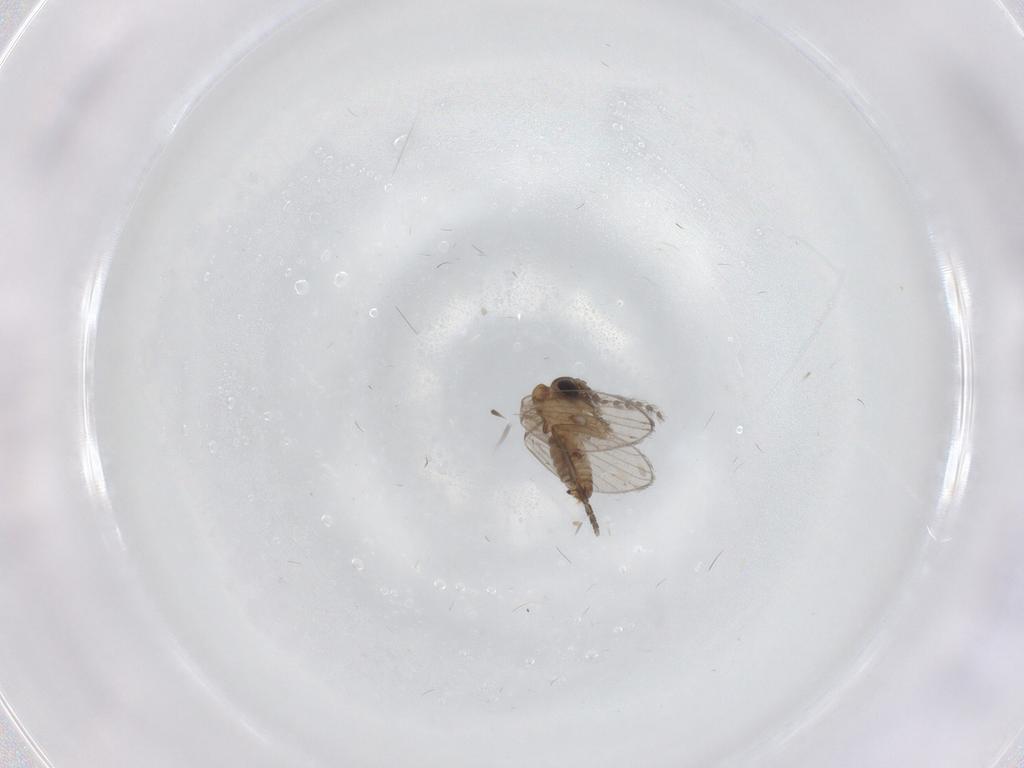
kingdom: Animalia
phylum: Arthropoda
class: Insecta
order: Diptera
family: Psychodidae
